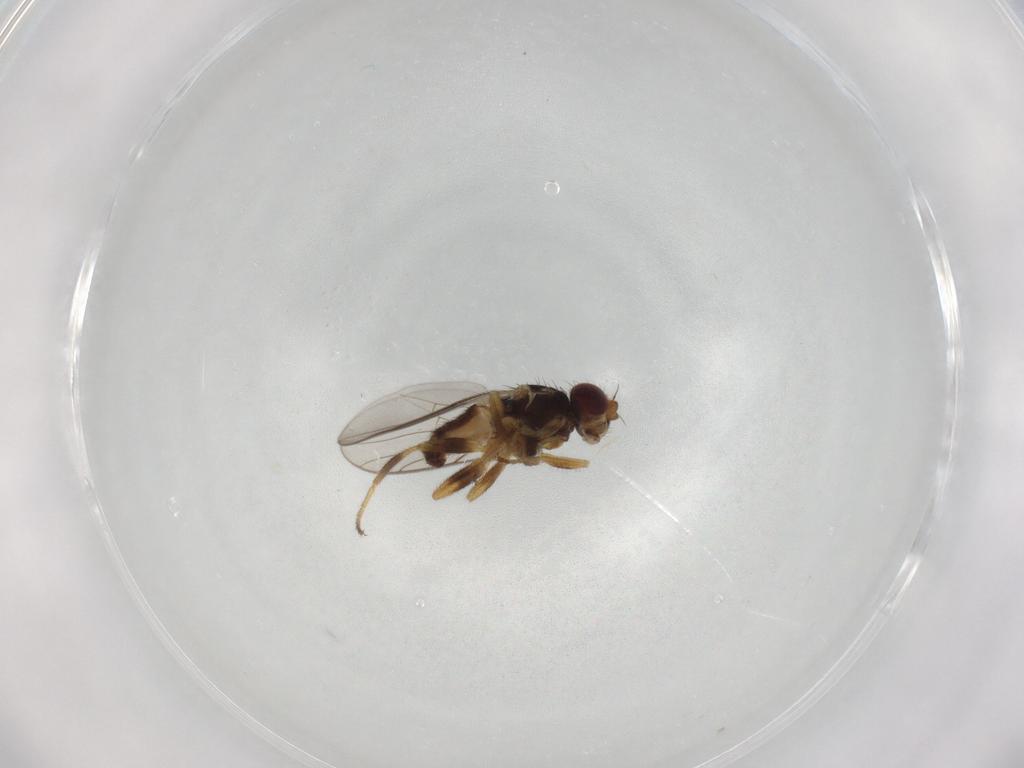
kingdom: Animalia
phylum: Arthropoda
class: Insecta
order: Diptera
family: Chloropidae
